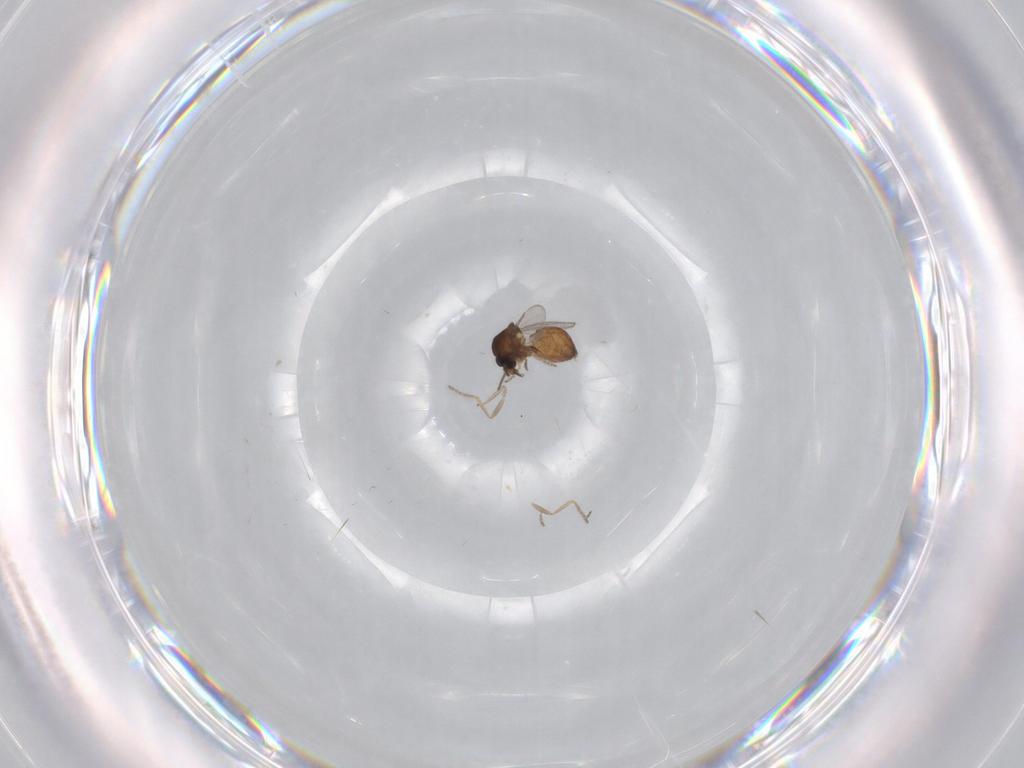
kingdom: Animalia
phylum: Arthropoda
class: Insecta
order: Diptera
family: Ceratopogonidae
